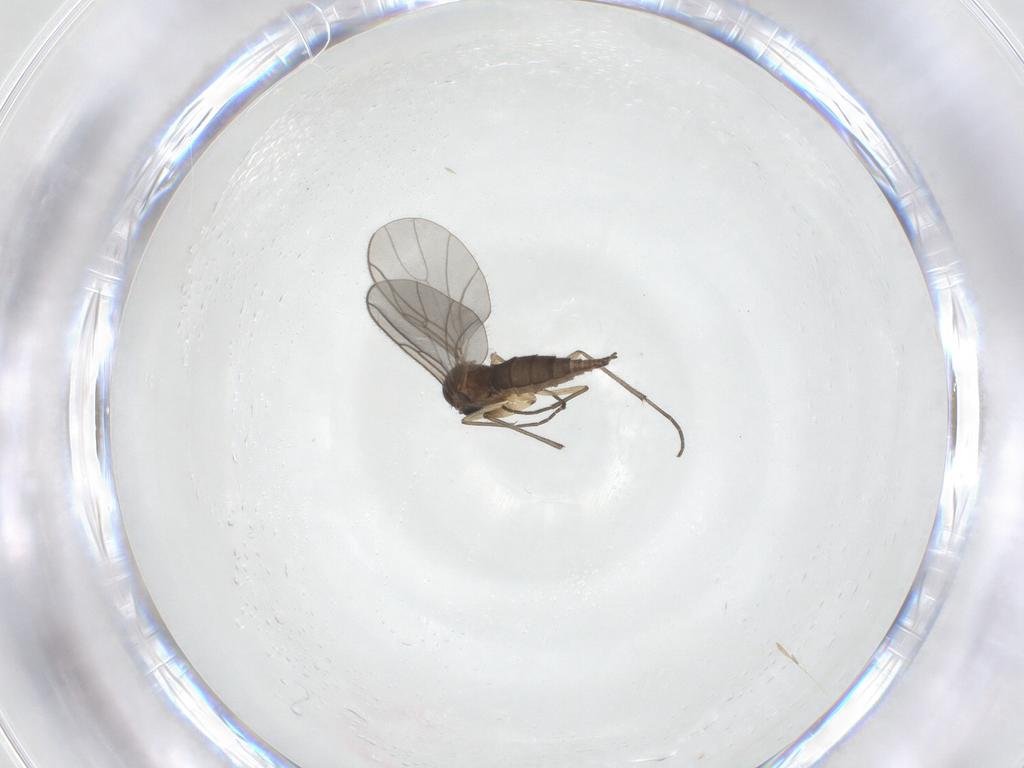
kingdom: Animalia
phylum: Arthropoda
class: Insecta
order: Diptera
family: Sciaridae
